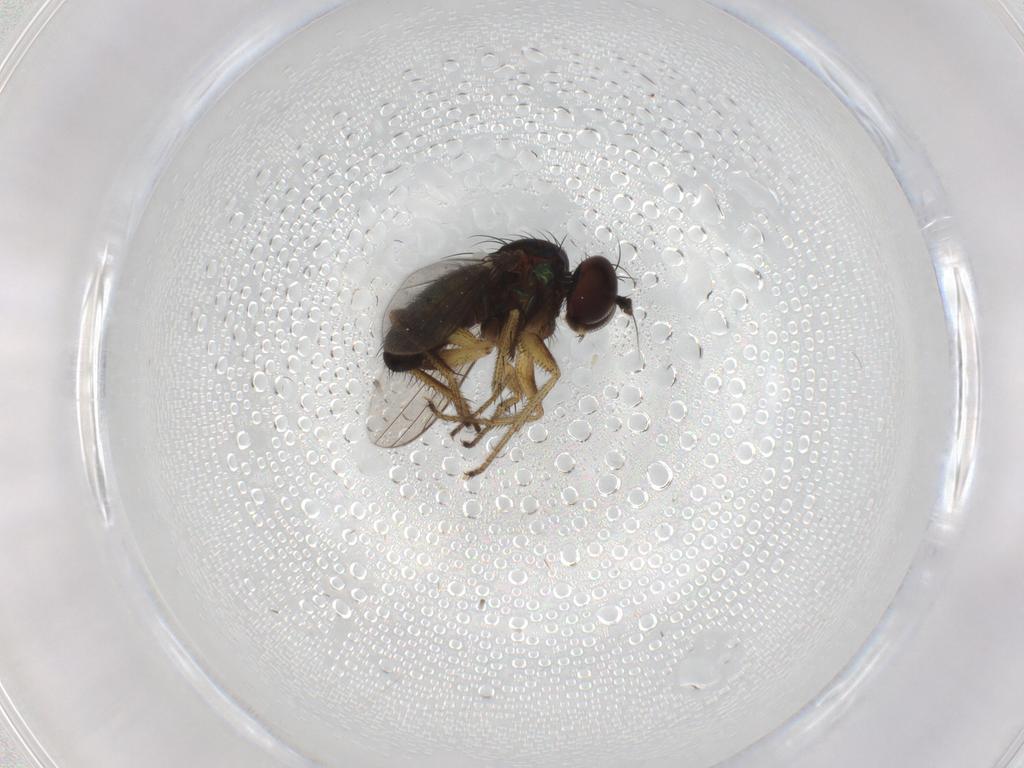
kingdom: Animalia
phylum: Arthropoda
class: Insecta
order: Diptera
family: Dolichopodidae
